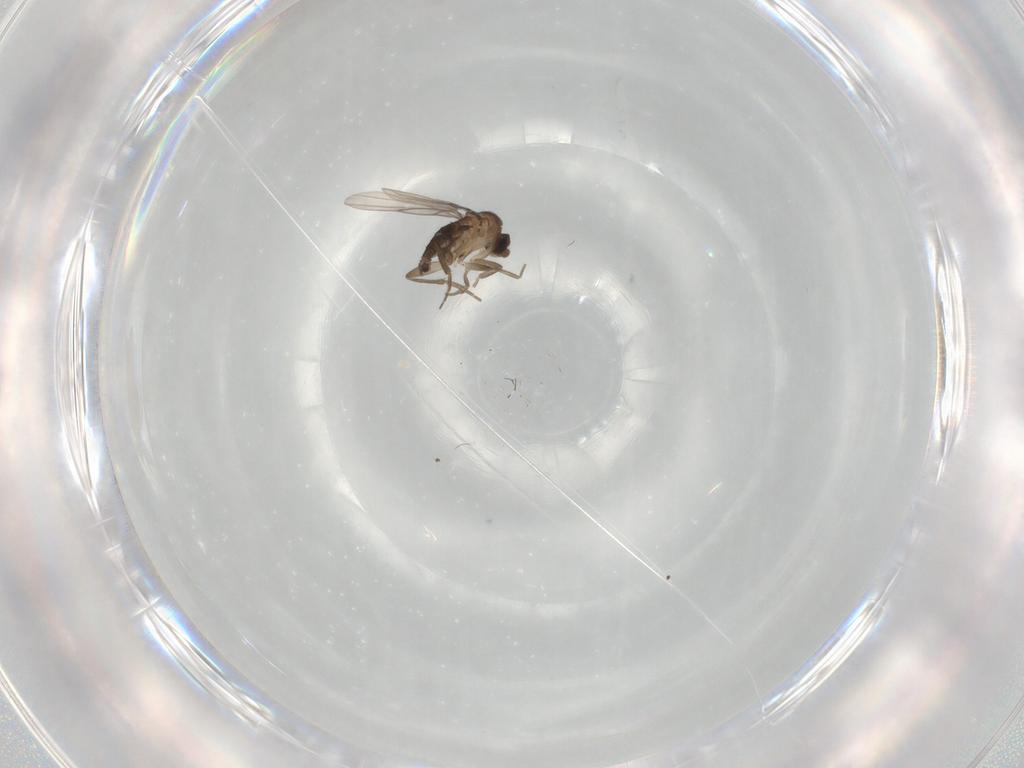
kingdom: Animalia
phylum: Arthropoda
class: Insecta
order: Diptera
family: Phoridae
